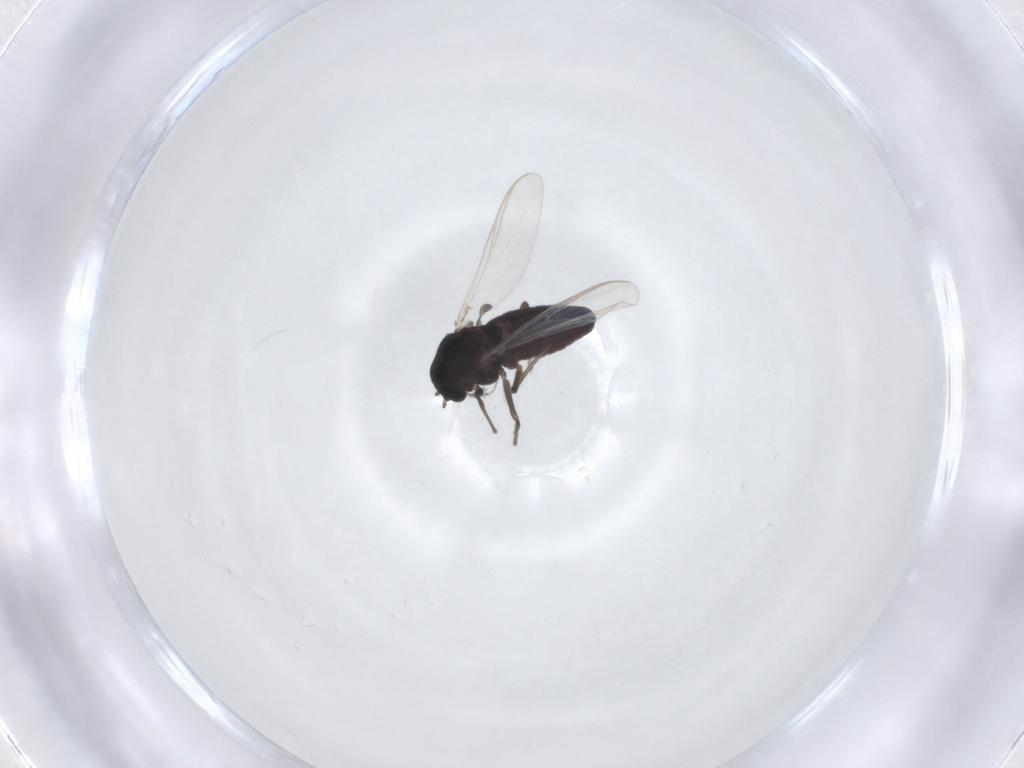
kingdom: Animalia
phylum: Arthropoda
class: Insecta
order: Diptera
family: Chironomidae
